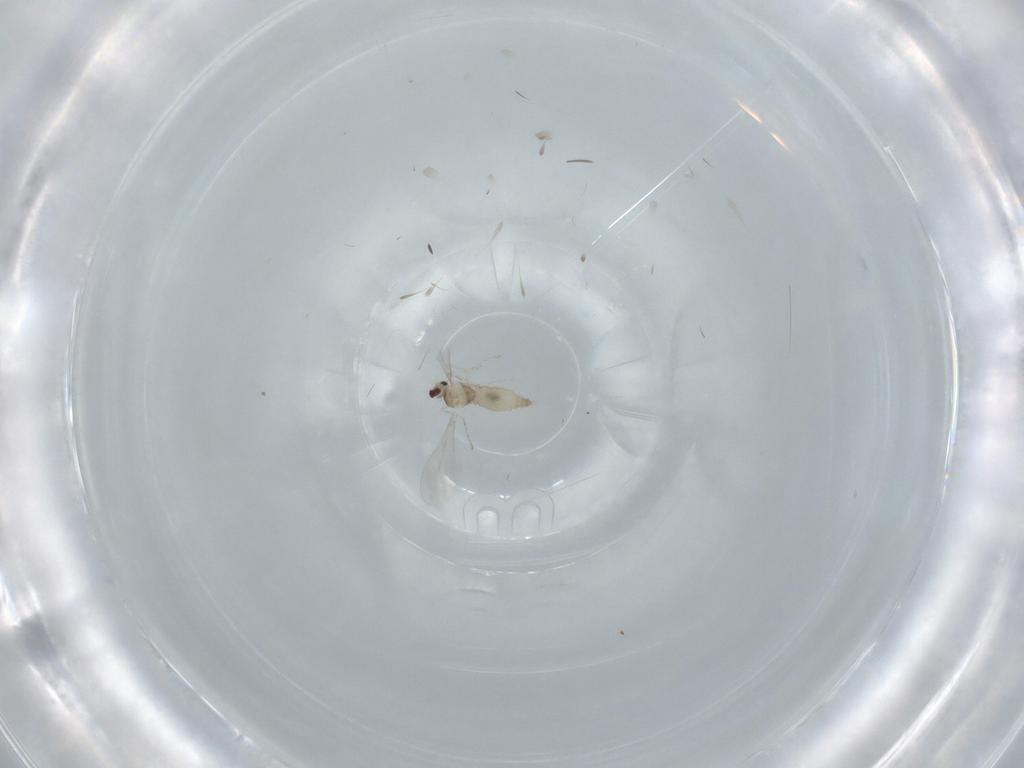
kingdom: Animalia
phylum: Arthropoda
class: Insecta
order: Diptera
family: Cecidomyiidae
